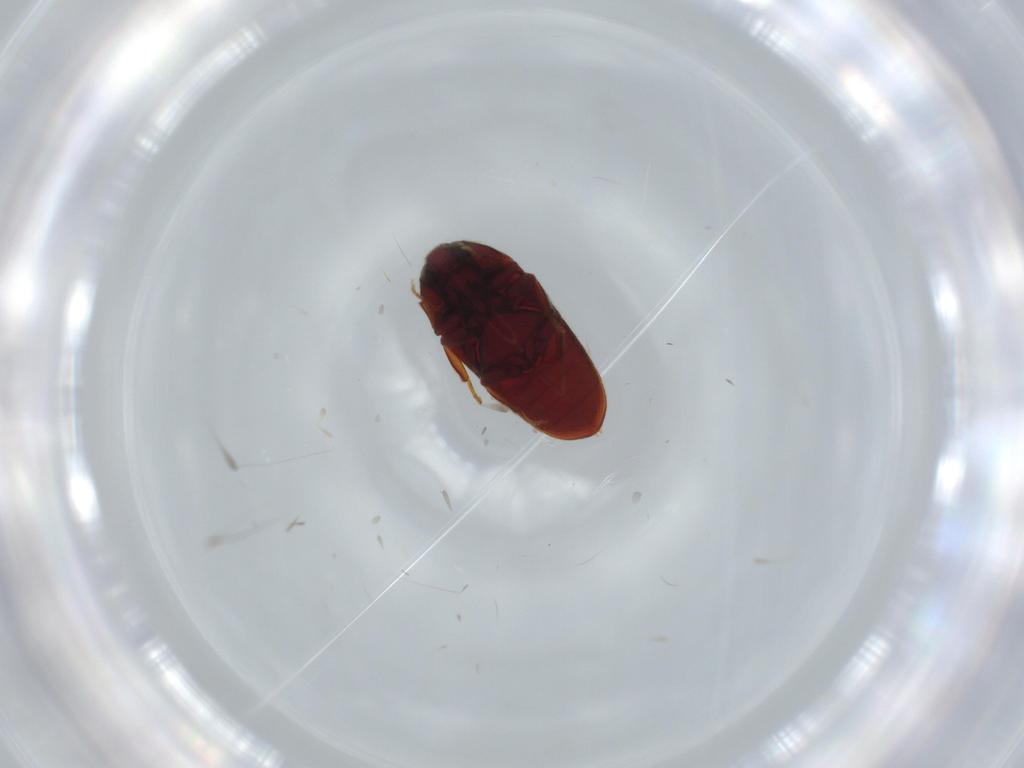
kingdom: Animalia
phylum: Arthropoda
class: Insecta
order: Coleoptera
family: Throscidae
